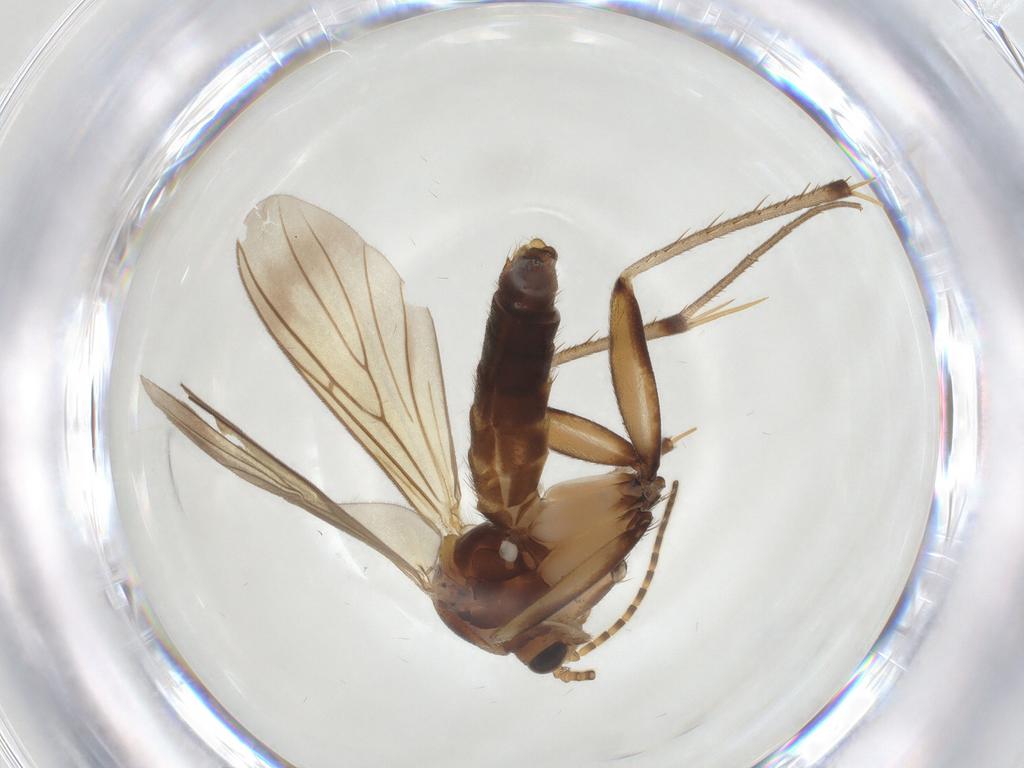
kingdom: Animalia
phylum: Arthropoda
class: Insecta
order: Diptera
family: Mycetophilidae
